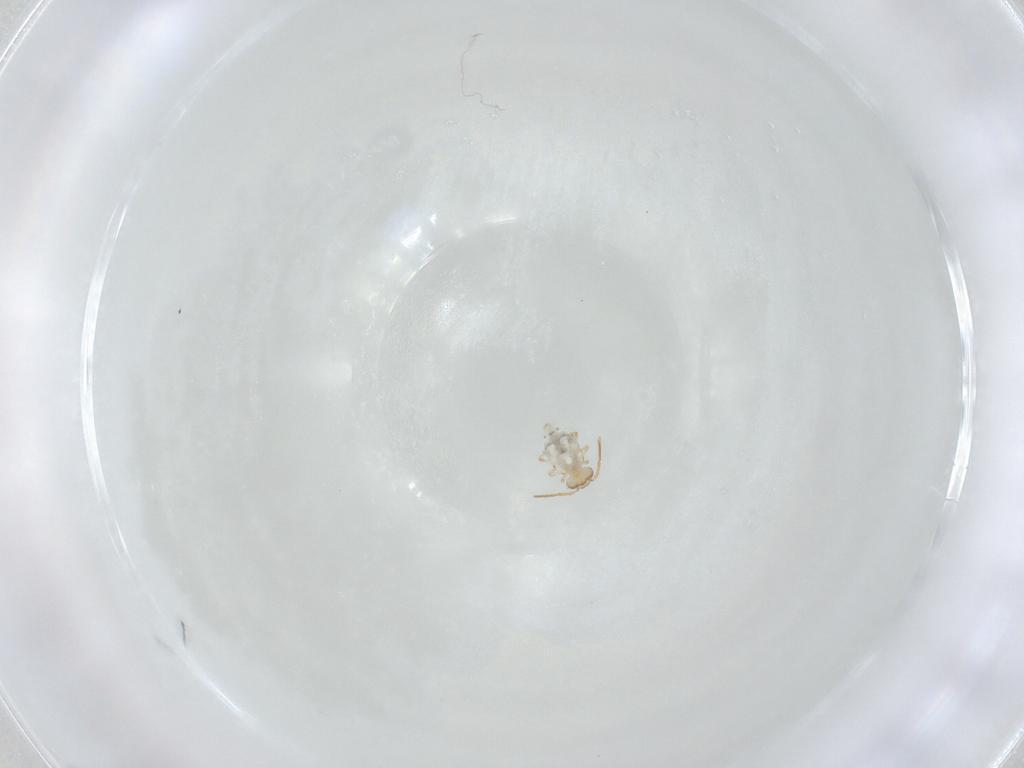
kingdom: Animalia
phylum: Arthropoda
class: Collembola
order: Symphypleona
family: Bourletiellidae
